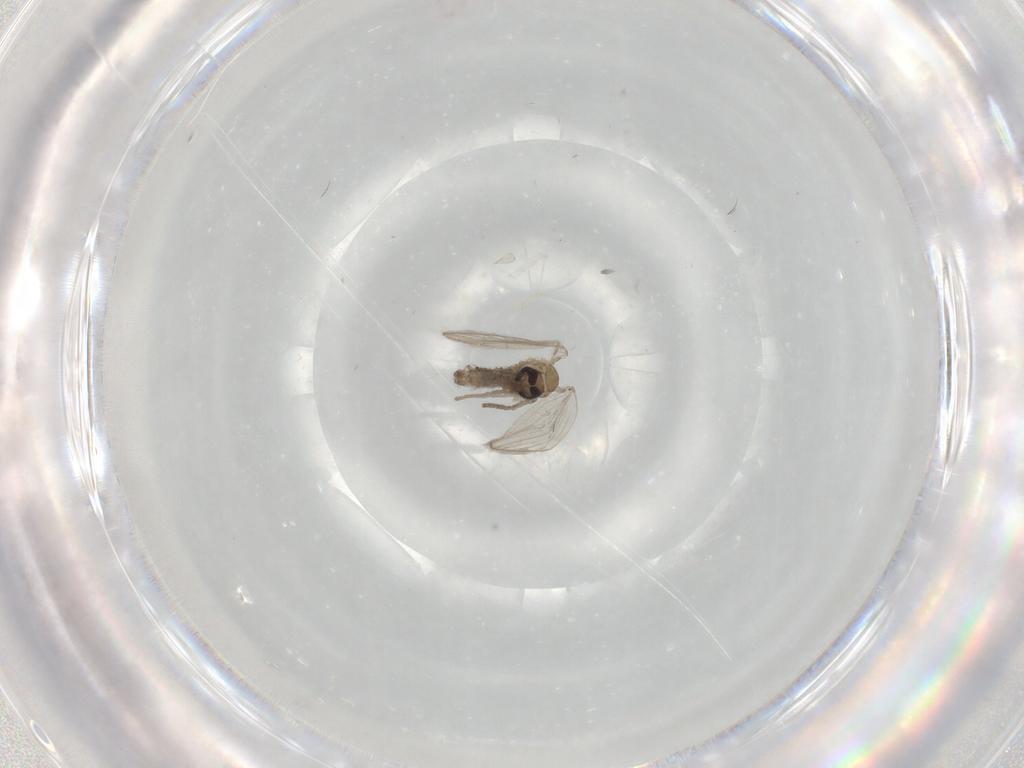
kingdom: Animalia
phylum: Arthropoda
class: Insecta
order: Diptera
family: Psychodidae
